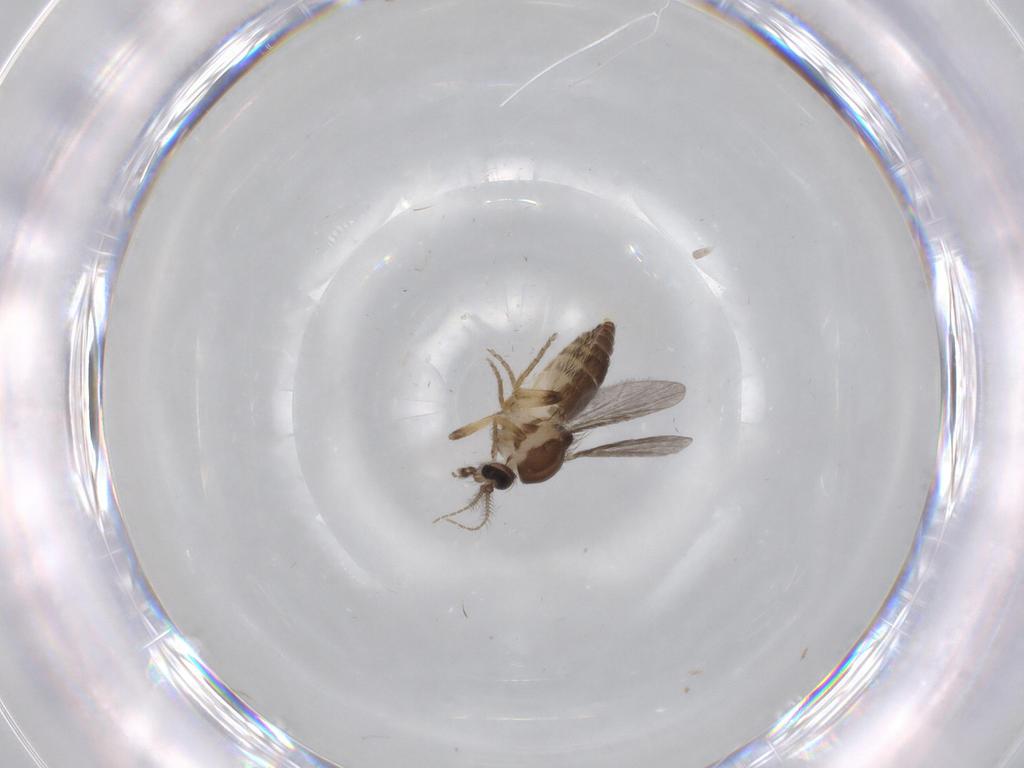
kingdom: Animalia
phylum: Arthropoda
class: Insecta
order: Diptera
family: Ceratopogonidae
